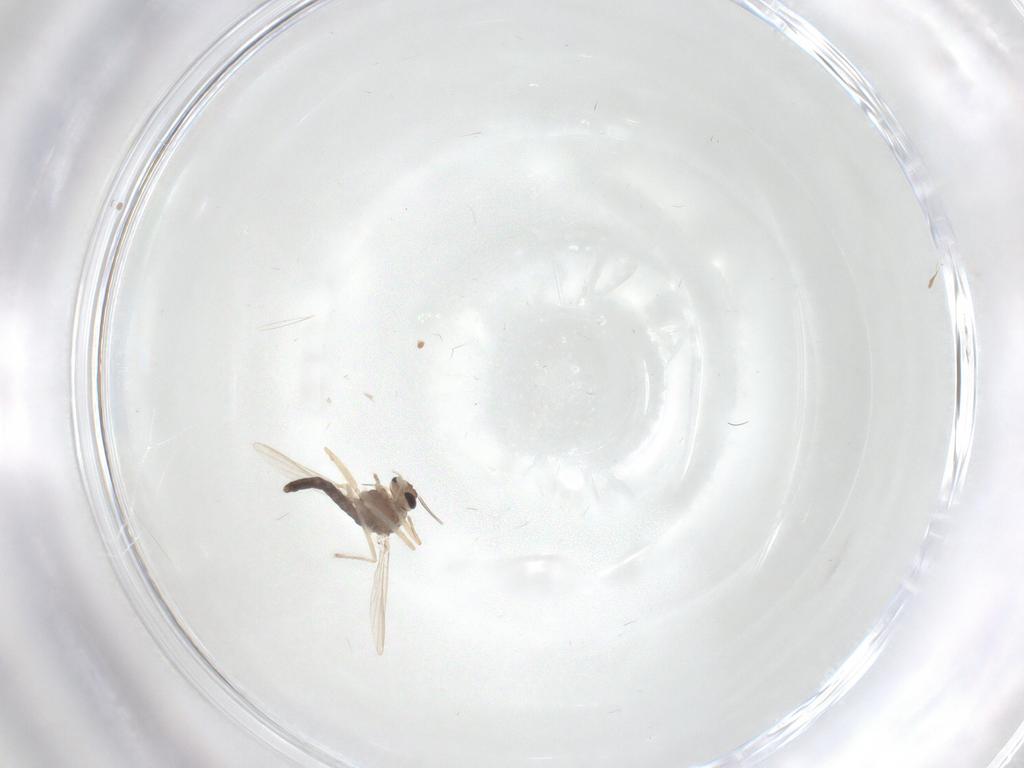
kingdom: Animalia
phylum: Arthropoda
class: Insecta
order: Diptera
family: Chironomidae
